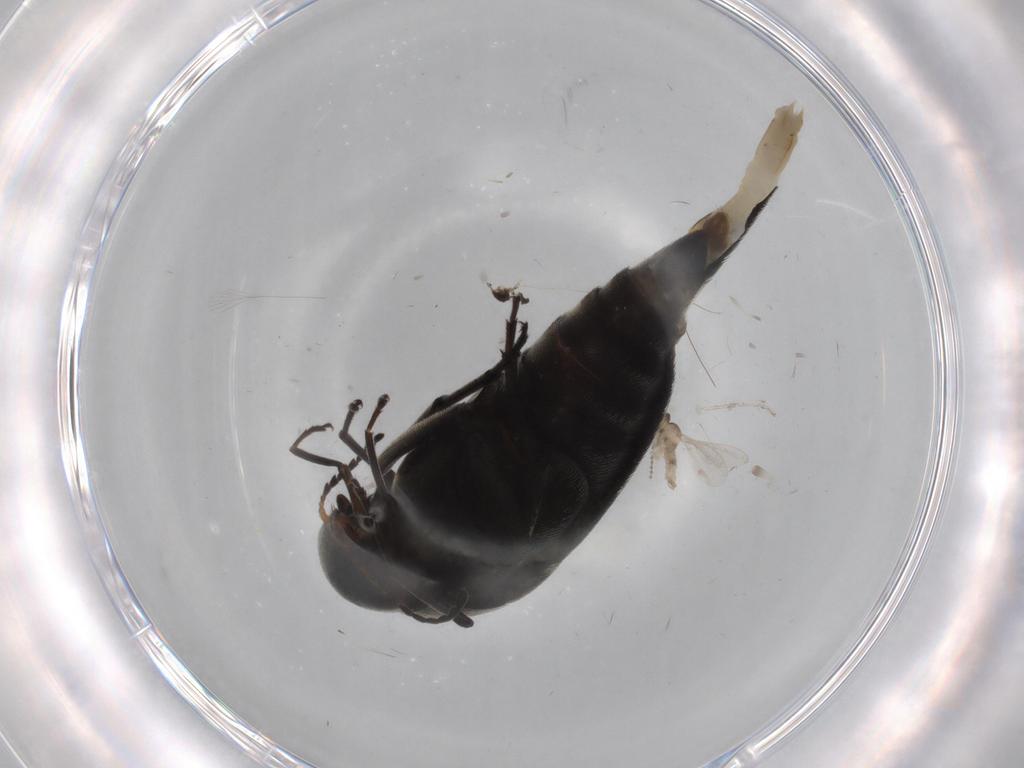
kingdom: Animalia
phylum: Arthropoda
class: Insecta
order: Coleoptera
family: Mordellidae
